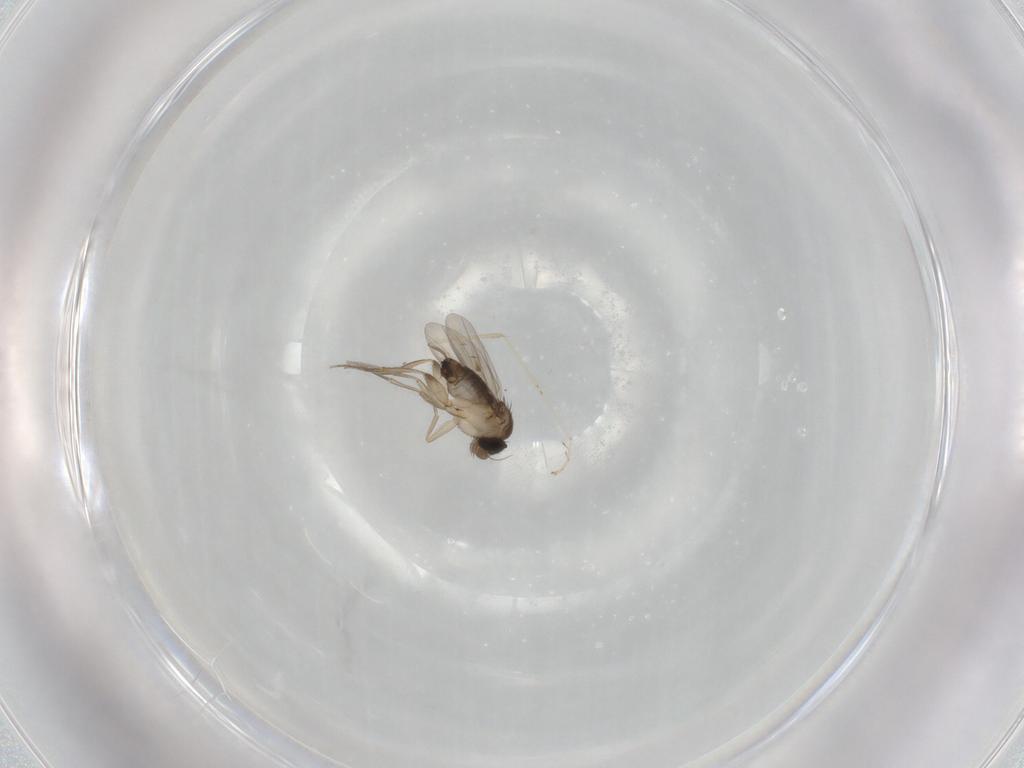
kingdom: Animalia
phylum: Arthropoda
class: Insecta
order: Diptera
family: Phoridae
